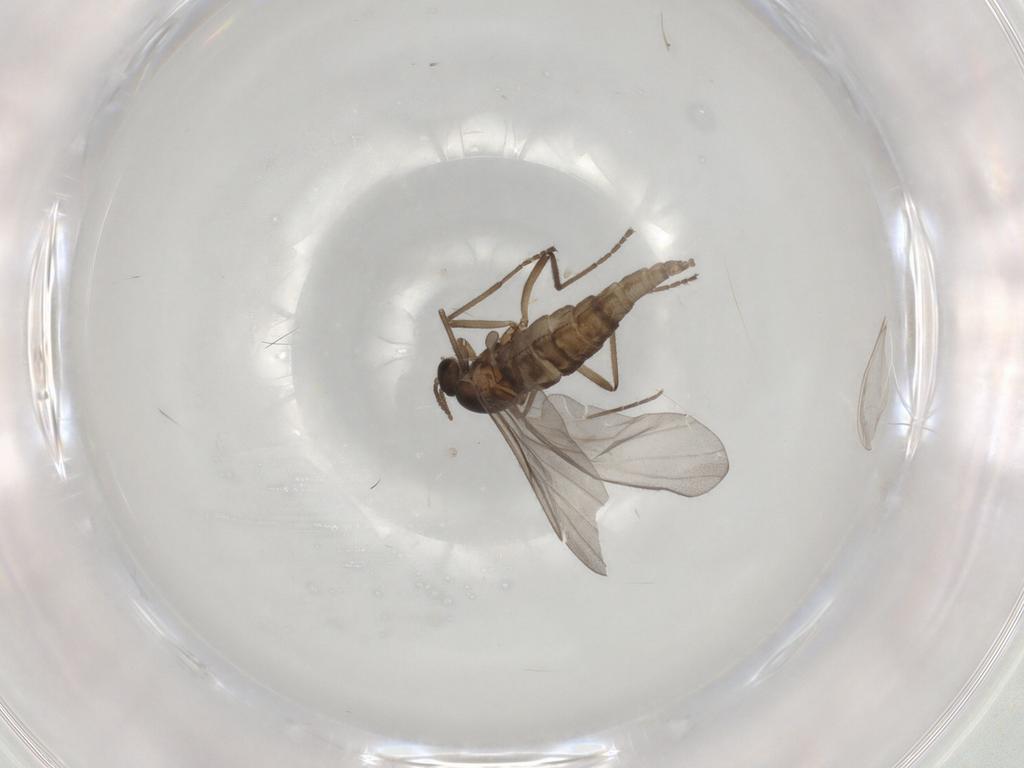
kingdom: Animalia
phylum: Arthropoda
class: Insecta
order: Diptera
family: Cecidomyiidae
